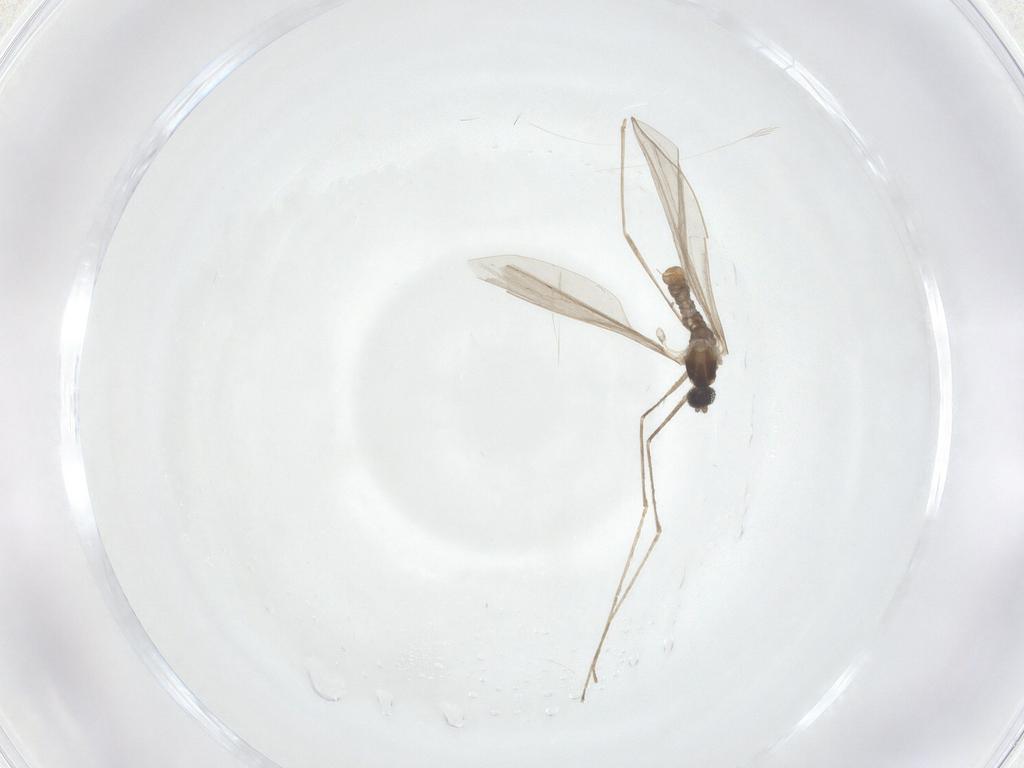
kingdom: Animalia
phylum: Arthropoda
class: Insecta
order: Diptera
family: Cecidomyiidae
